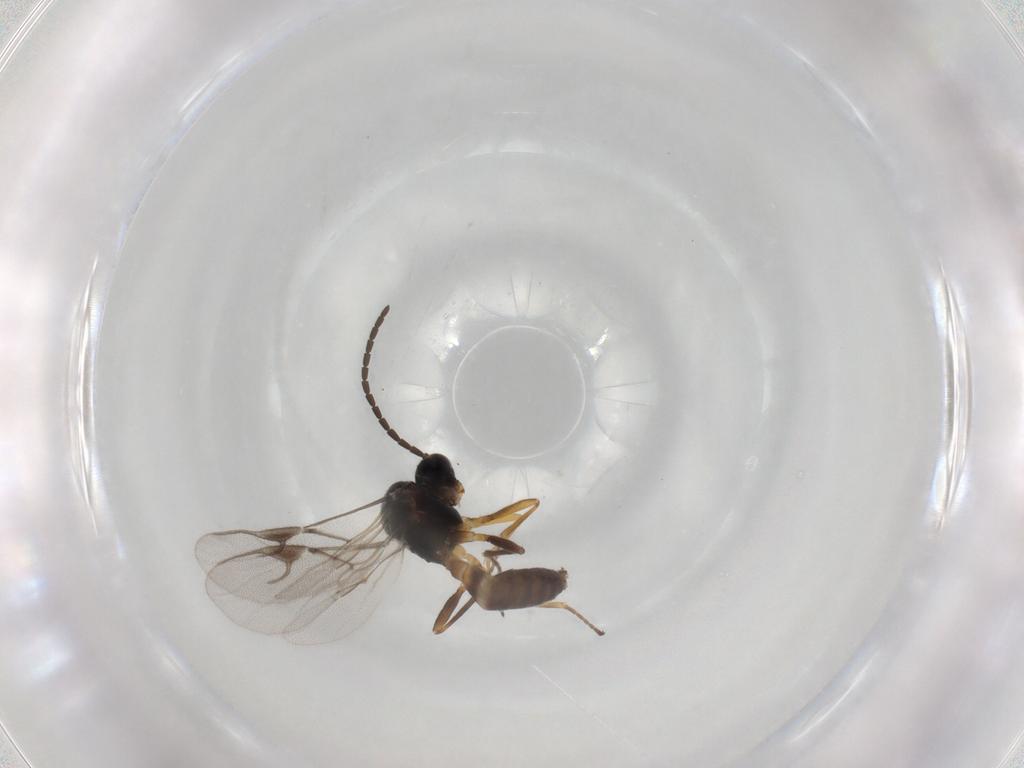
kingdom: Animalia
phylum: Arthropoda
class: Insecta
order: Hymenoptera
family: Braconidae
